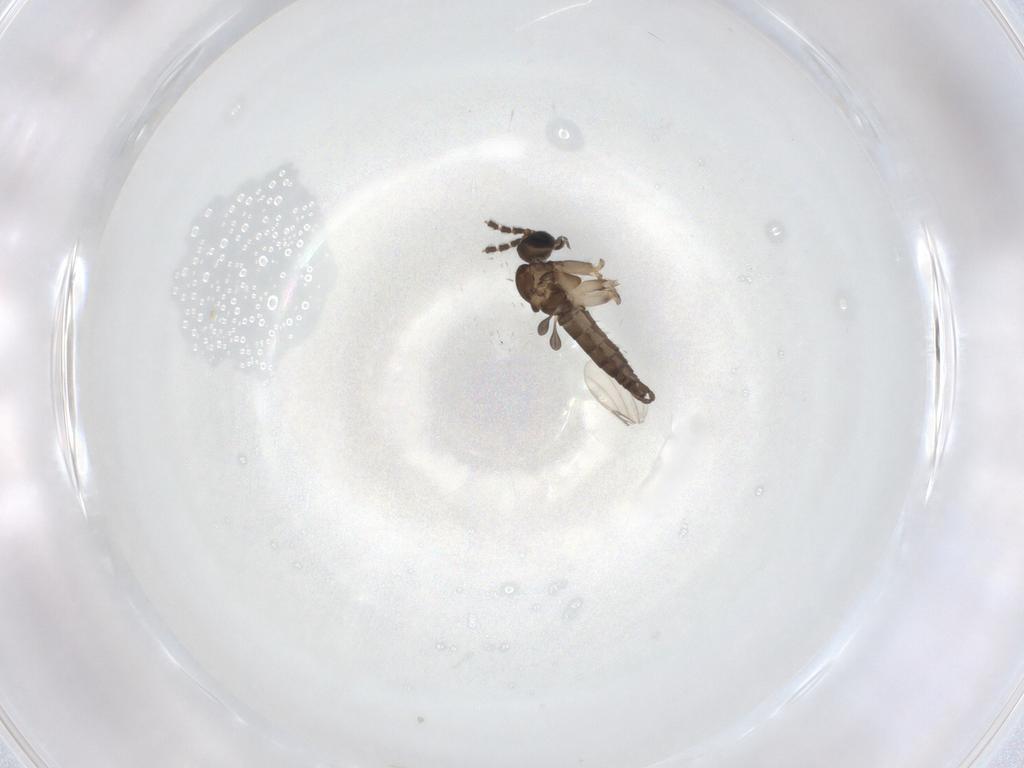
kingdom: Animalia
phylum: Arthropoda
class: Insecta
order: Diptera
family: Sciaridae
